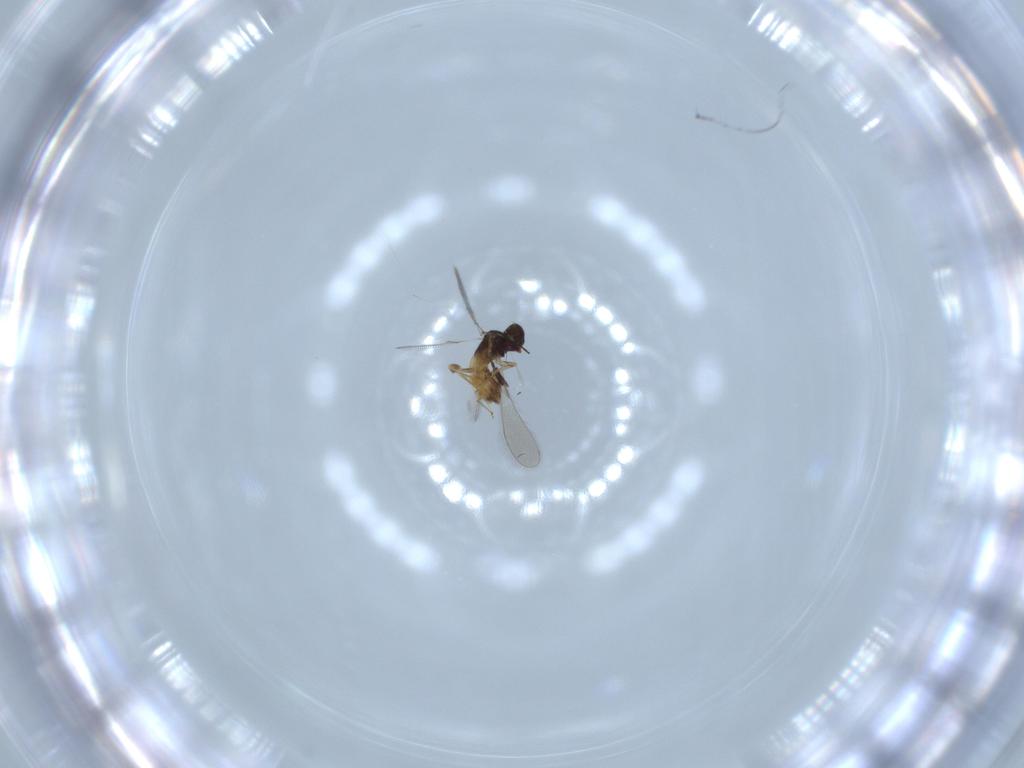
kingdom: Animalia
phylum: Arthropoda
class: Insecta
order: Hymenoptera
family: Mymaridae
